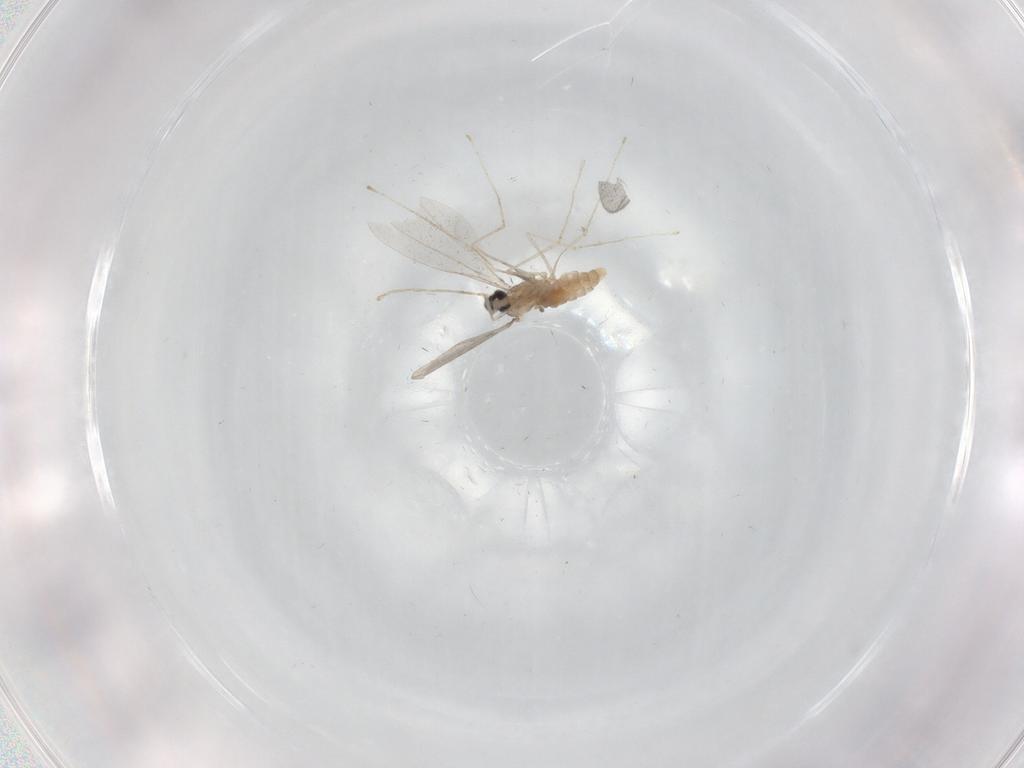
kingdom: Animalia
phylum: Arthropoda
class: Insecta
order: Diptera
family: Cecidomyiidae
